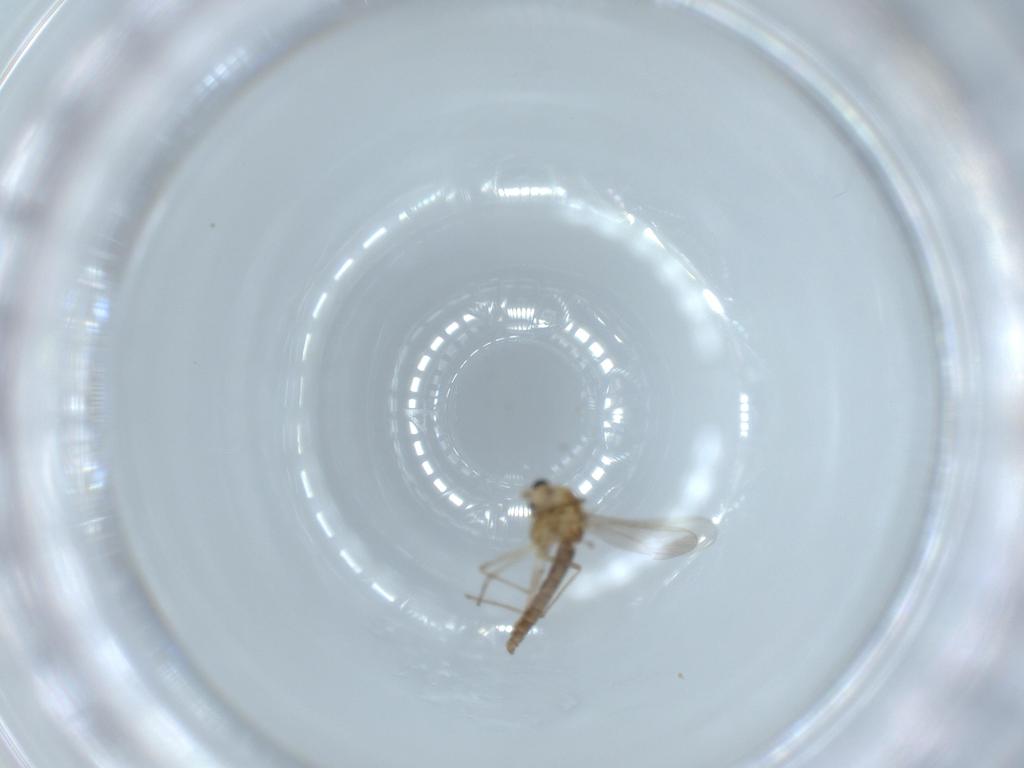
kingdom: Animalia
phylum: Arthropoda
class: Insecta
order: Diptera
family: Chironomidae
